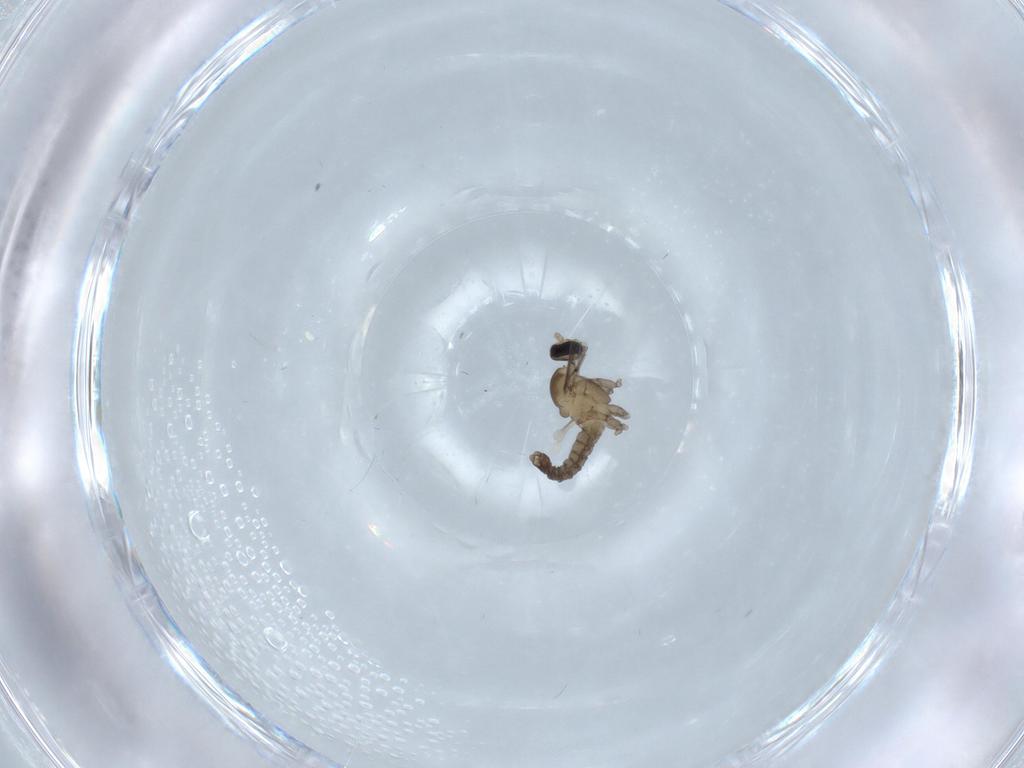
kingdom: Animalia
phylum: Arthropoda
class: Insecta
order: Diptera
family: Cecidomyiidae
